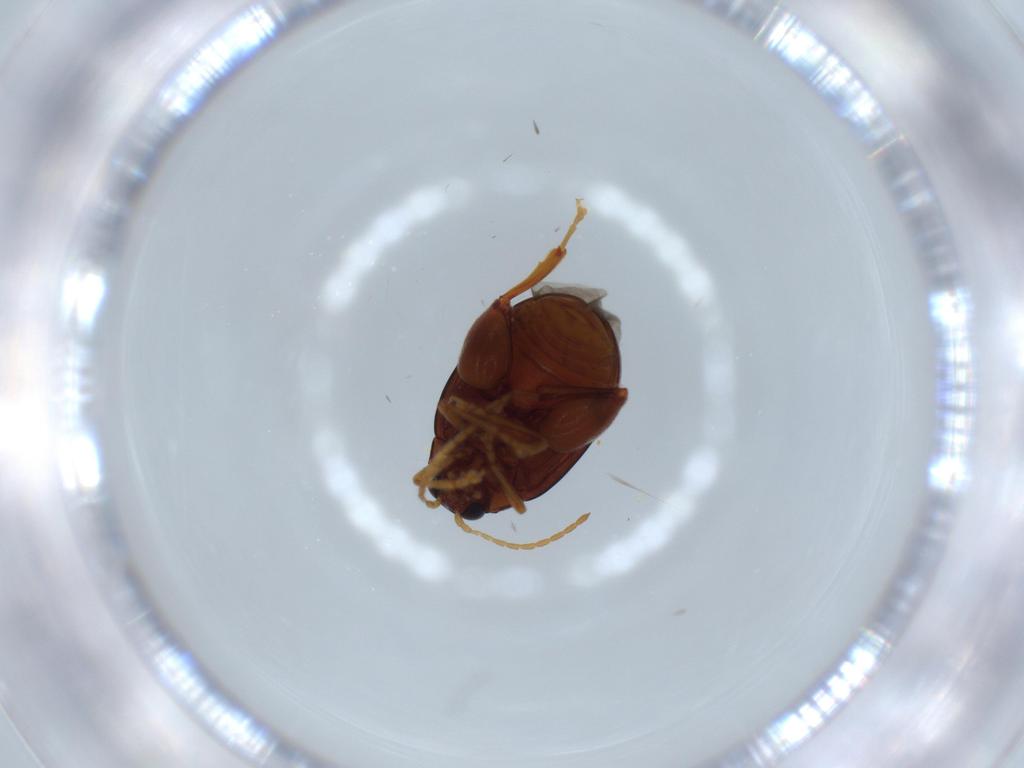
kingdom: Animalia
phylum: Arthropoda
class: Insecta
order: Coleoptera
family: Chrysomelidae
